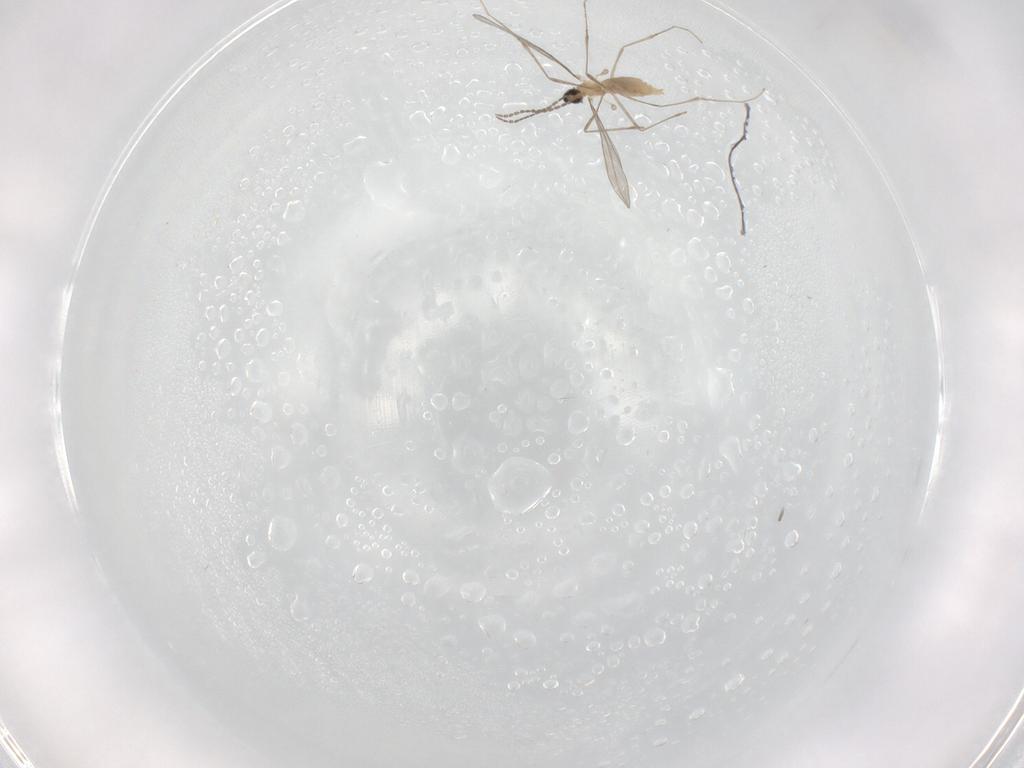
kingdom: Animalia
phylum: Arthropoda
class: Insecta
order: Diptera
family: Cecidomyiidae
